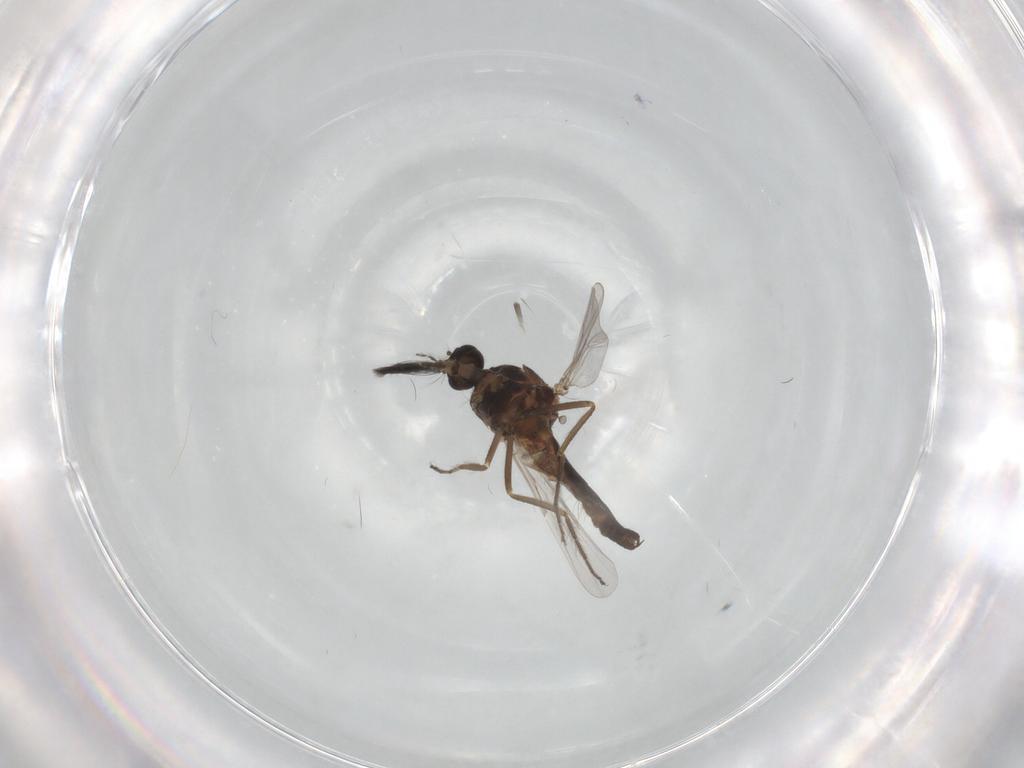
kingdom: Animalia
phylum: Arthropoda
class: Insecta
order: Diptera
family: Ceratopogonidae
